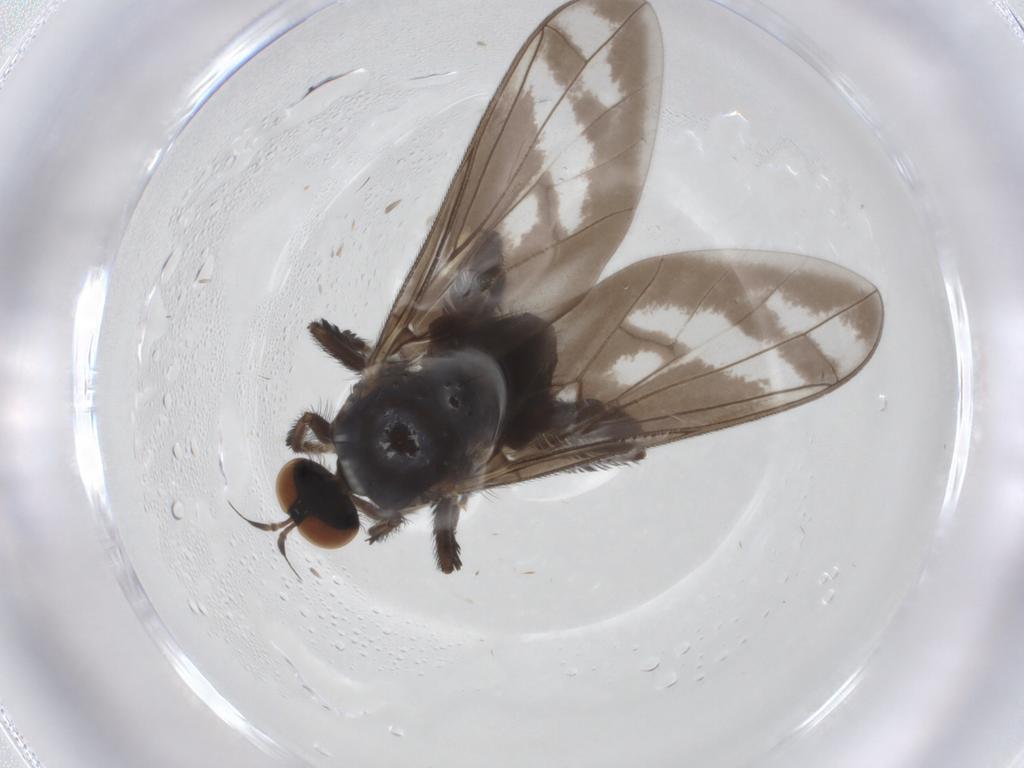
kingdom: Animalia
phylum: Arthropoda
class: Insecta
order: Diptera
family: Empididae
